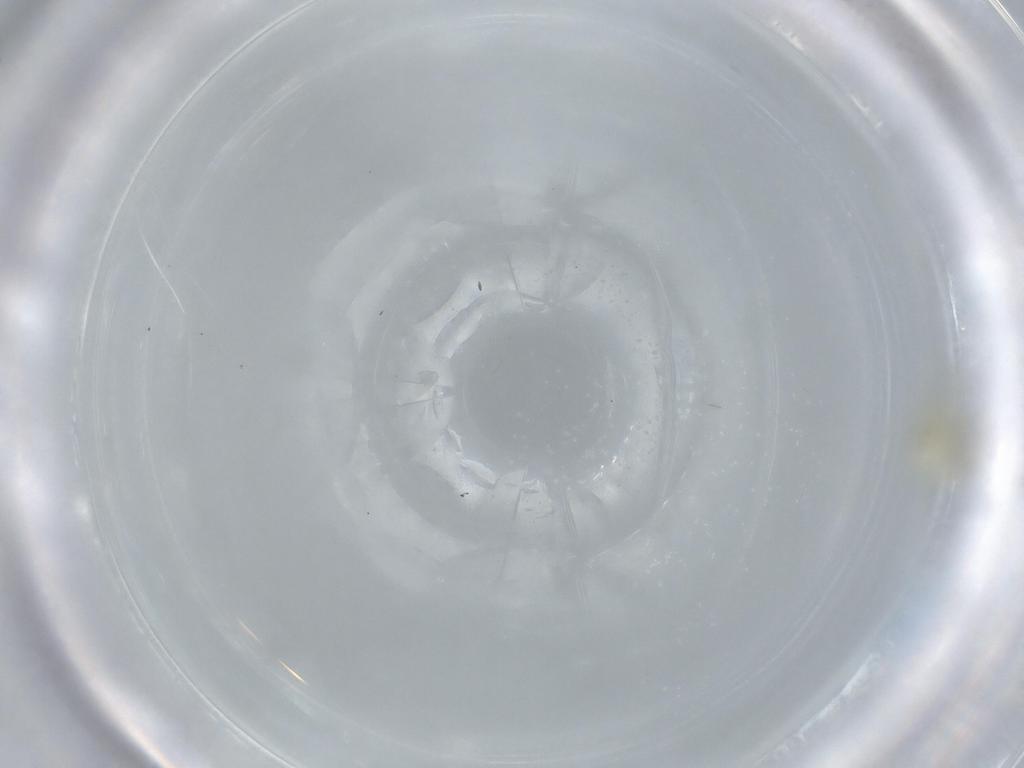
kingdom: Animalia
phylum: Arthropoda
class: Insecta
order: Hemiptera
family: Aleyrodidae
